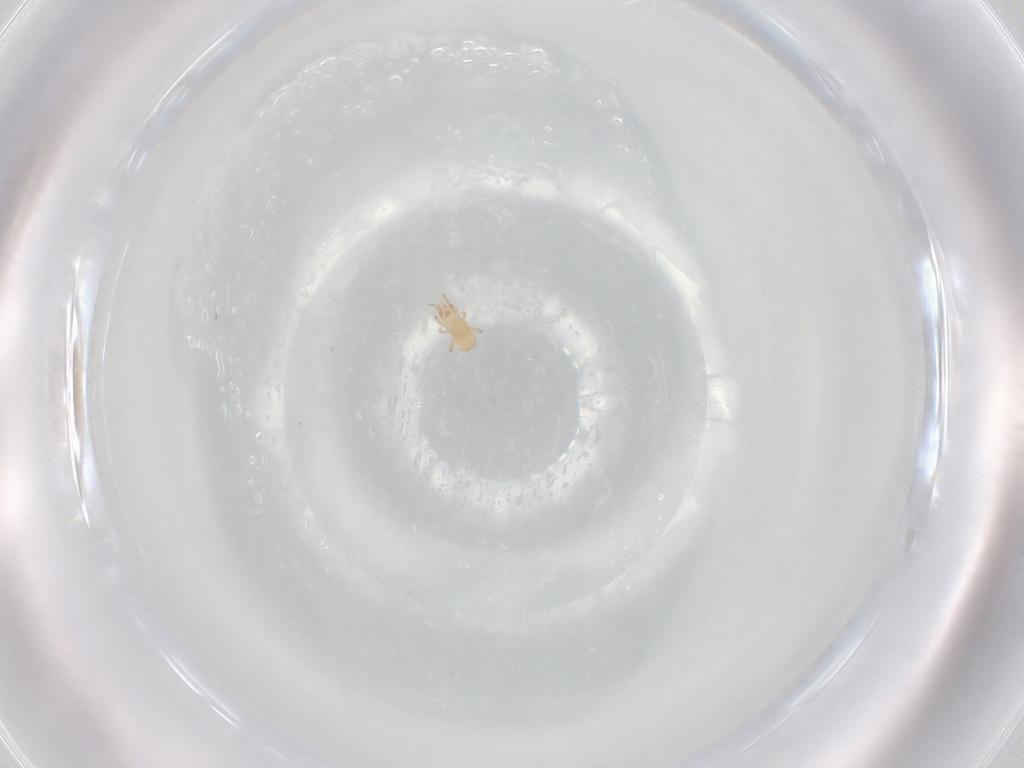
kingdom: Animalia
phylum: Arthropoda
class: Arachnida
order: Mesostigmata
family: Ascidae
